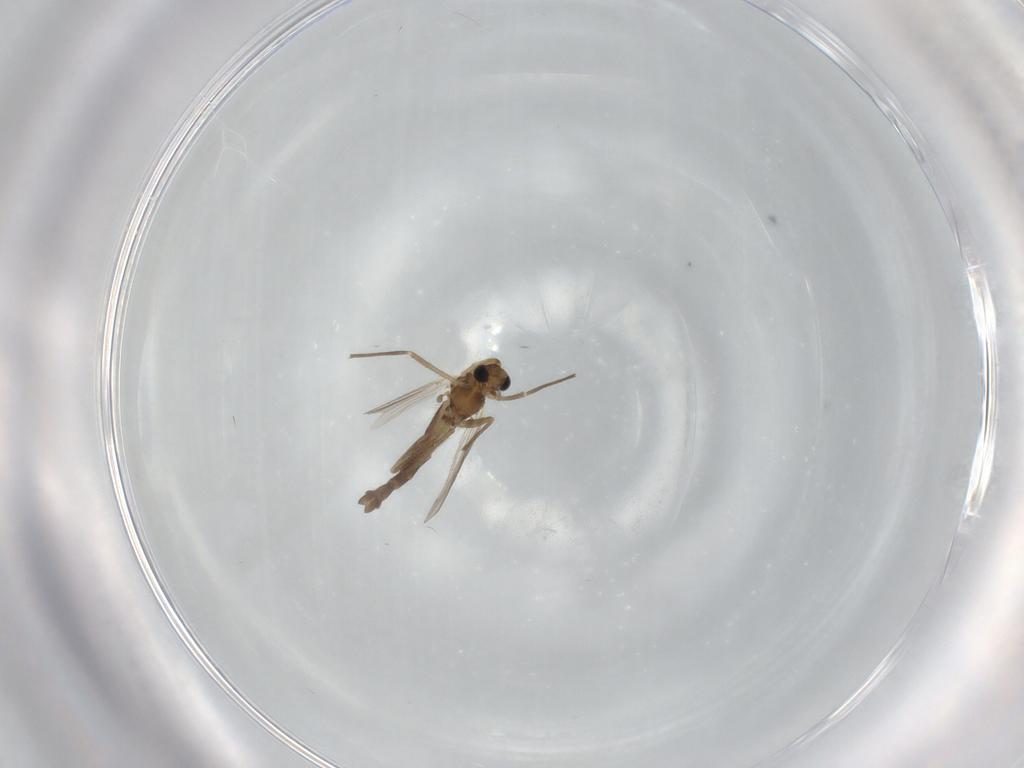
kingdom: Animalia
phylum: Arthropoda
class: Insecta
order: Diptera
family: Chironomidae
